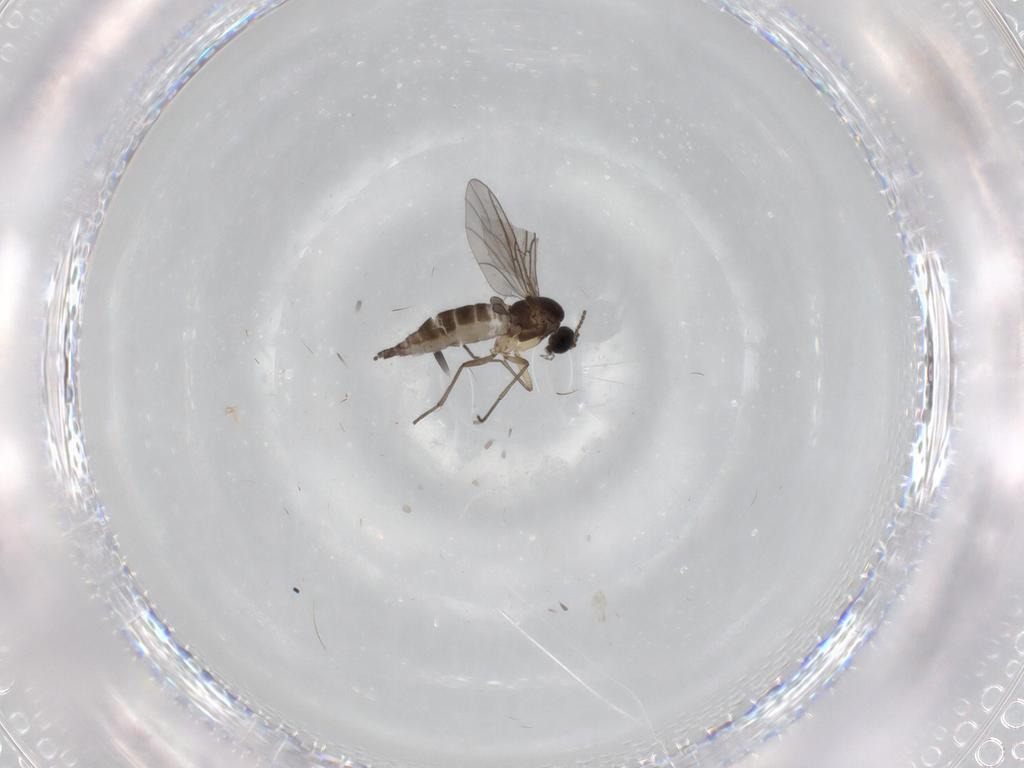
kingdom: Animalia
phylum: Arthropoda
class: Insecta
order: Diptera
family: Sciaridae
